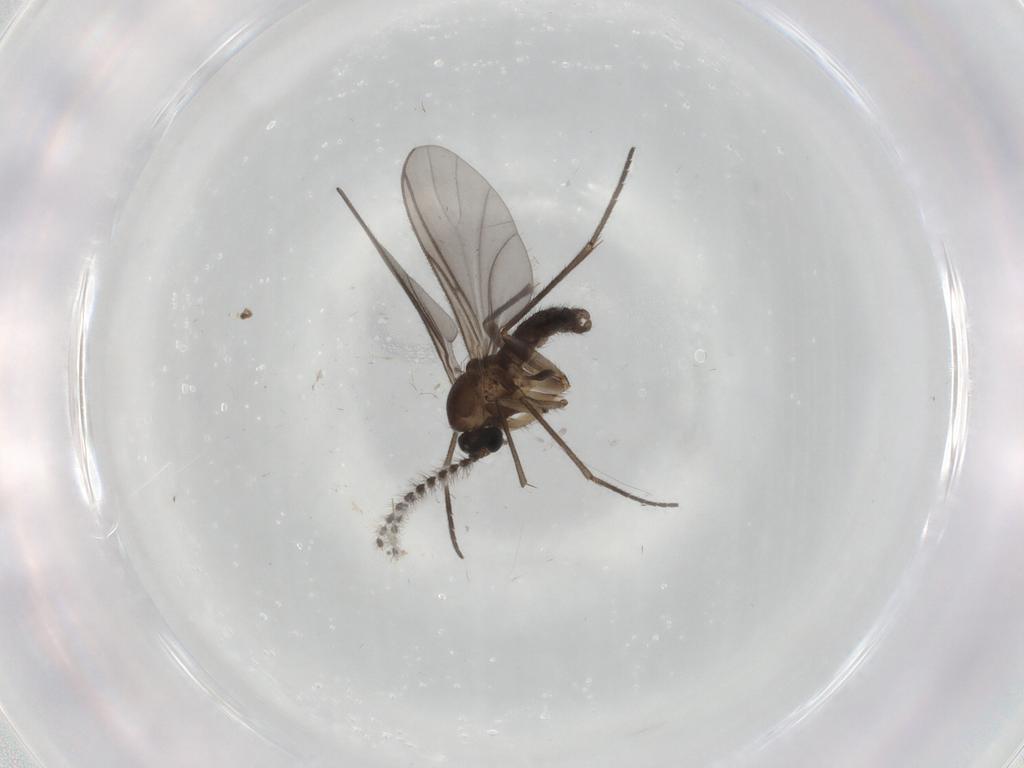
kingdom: Animalia
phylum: Arthropoda
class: Insecta
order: Diptera
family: Sciaridae
